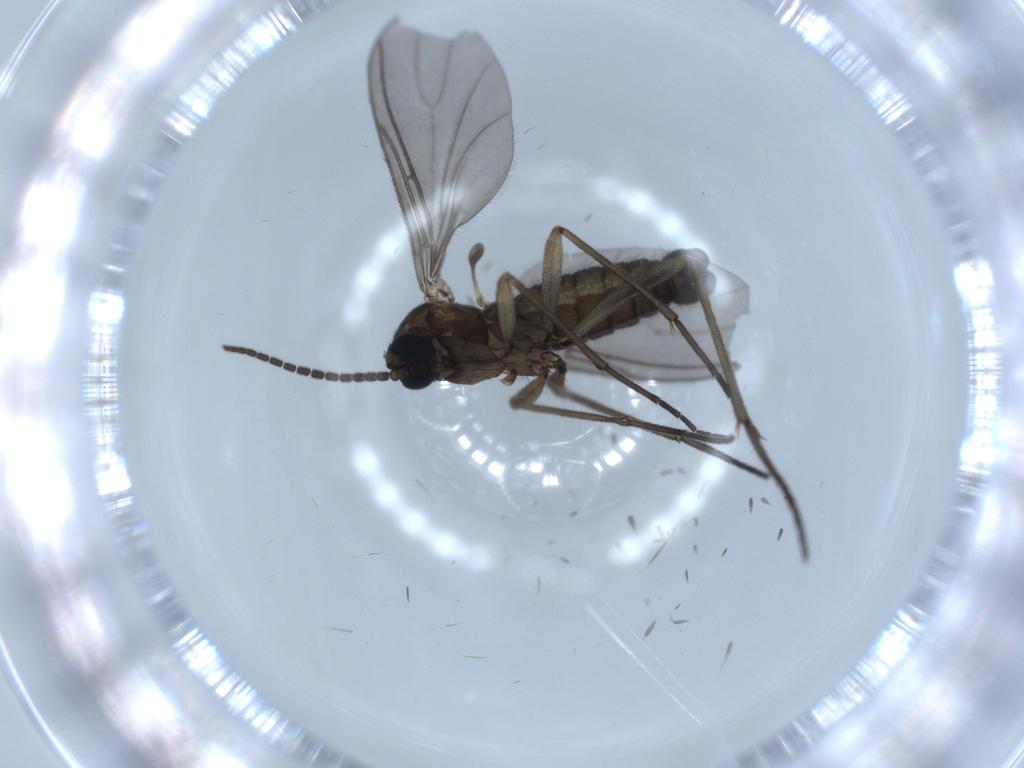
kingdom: Animalia
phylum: Arthropoda
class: Insecta
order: Diptera
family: Sciaridae
